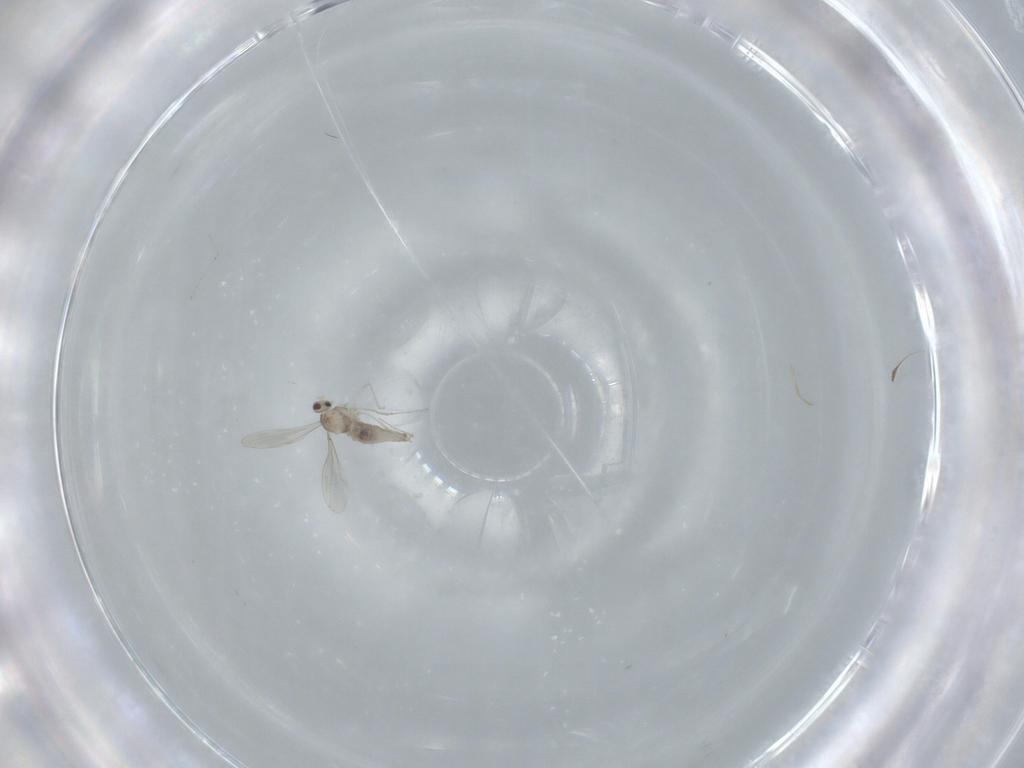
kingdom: Animalia
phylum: Arthropoda
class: Insecta
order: Diptera
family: Cecidomyiidae
